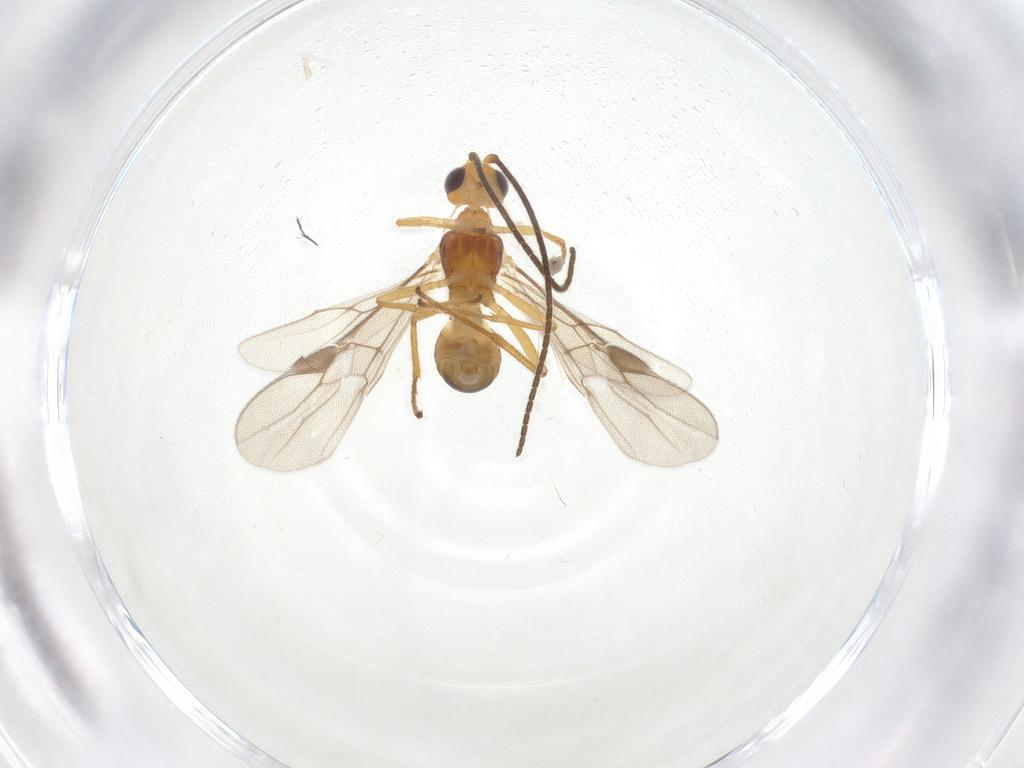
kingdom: Animalia
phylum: Arthropoda
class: Insecta
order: Hymenoptera
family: Braconidae
